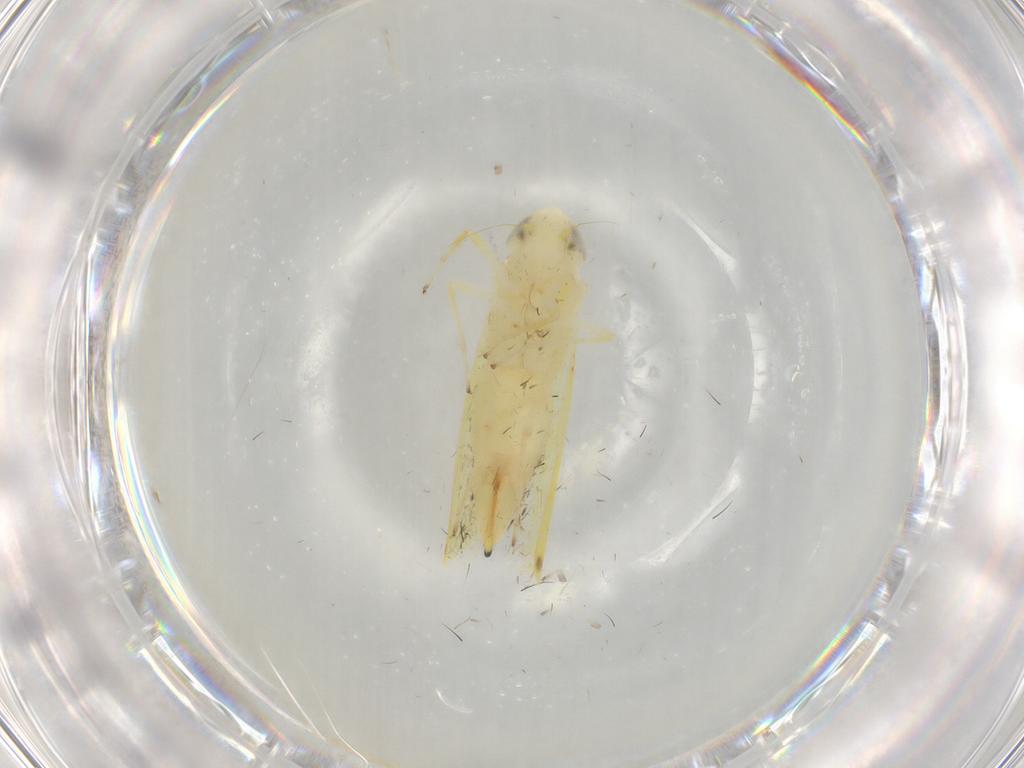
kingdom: Animalia
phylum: Arthropoda
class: Insecta
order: Hemiptera
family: Cicadellidae
